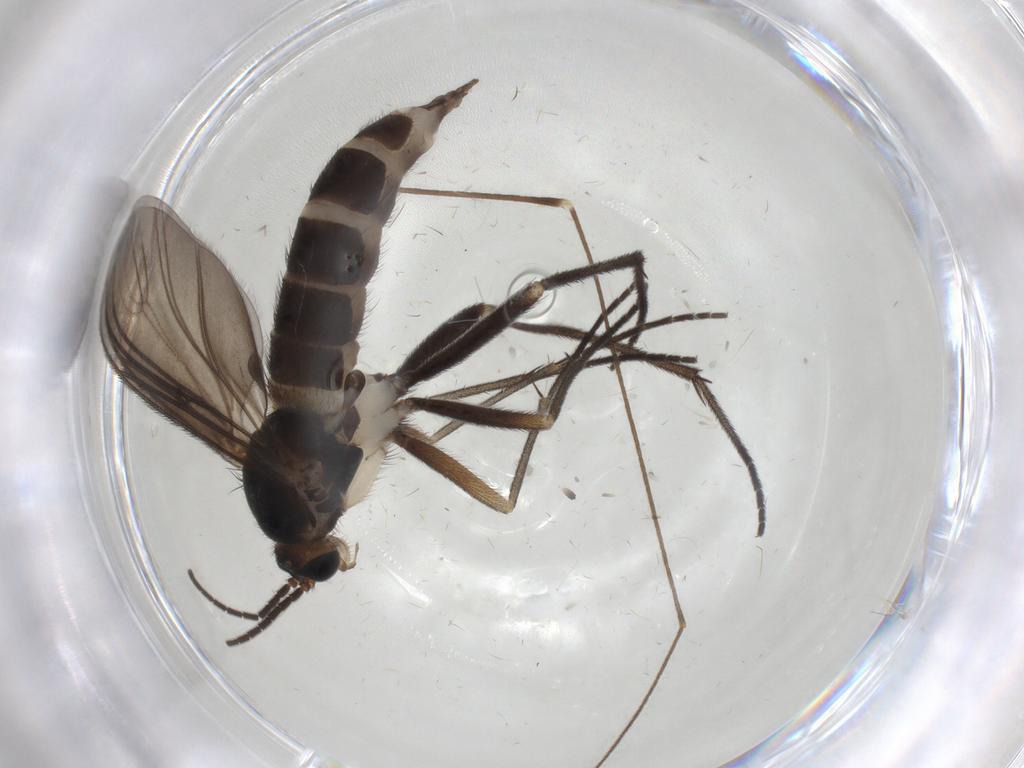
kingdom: Animalia
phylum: Arthropoda
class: Insecta
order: Diptera
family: Sciaridae
